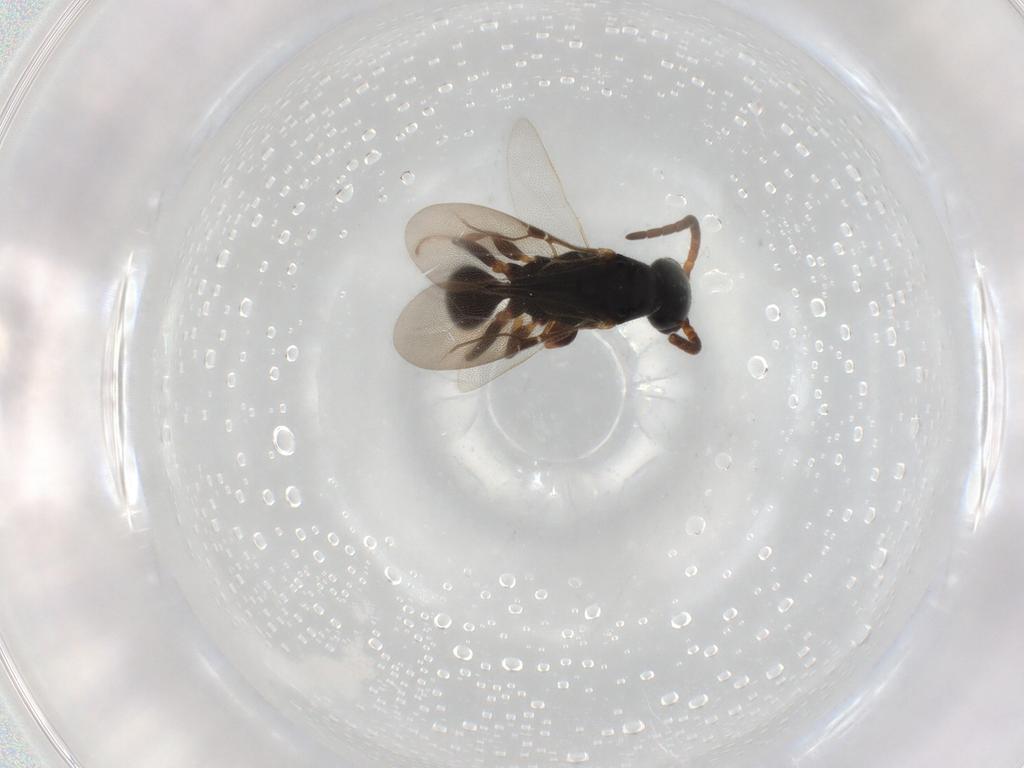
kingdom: Animalia
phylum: Arthropoda
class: Insecta
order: Hymenoptera
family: Bethylidae
